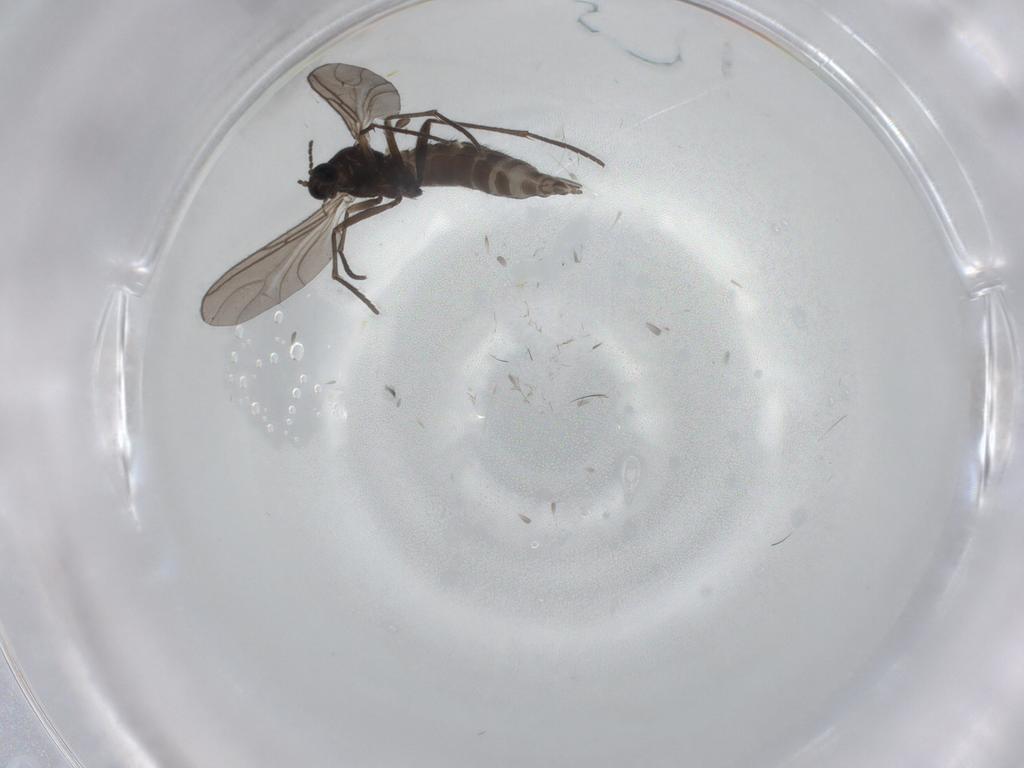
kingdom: Animalia
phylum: Arthropoda
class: Insecta
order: Diptera
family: Sciaridae
